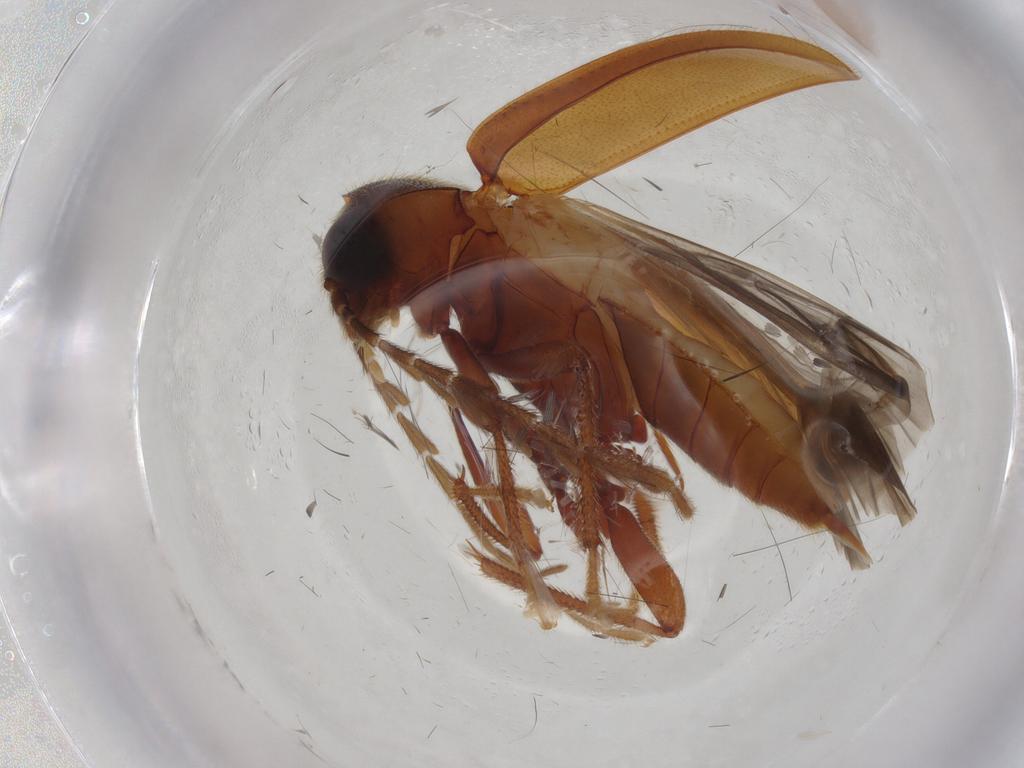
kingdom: Animalia
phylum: Arthropoda
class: Insecta
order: Coleoptera
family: Ptilodactylidae
